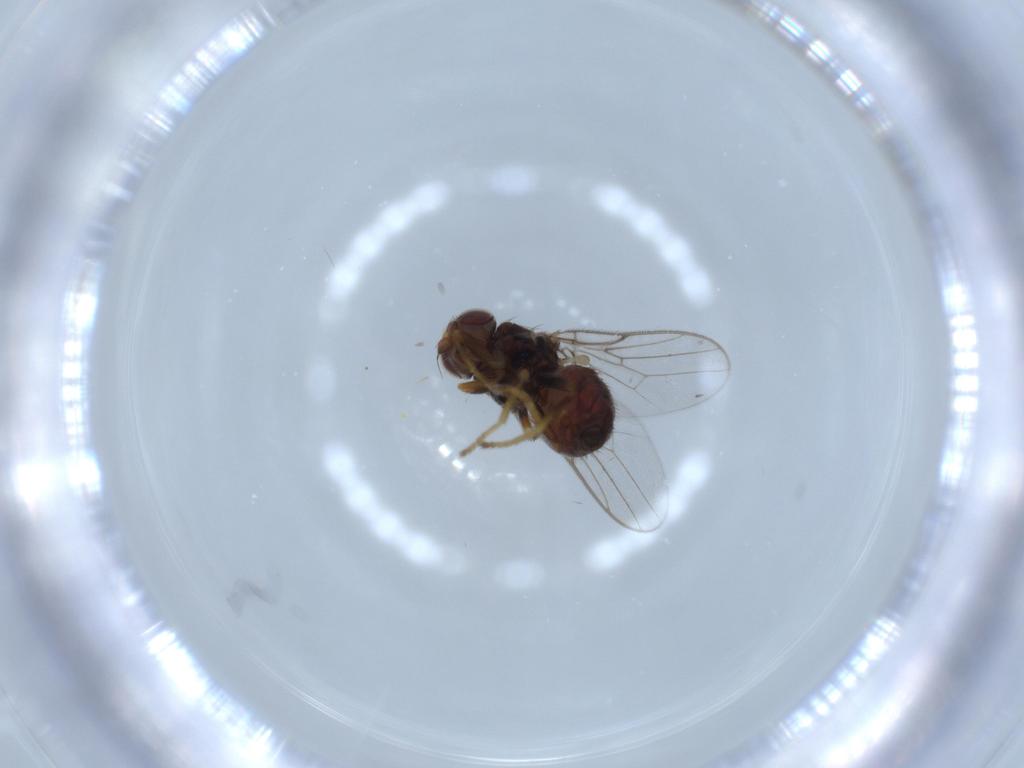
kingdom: Animalia
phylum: Arthropoda
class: Insecta
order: Diptera
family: Chloropidae
